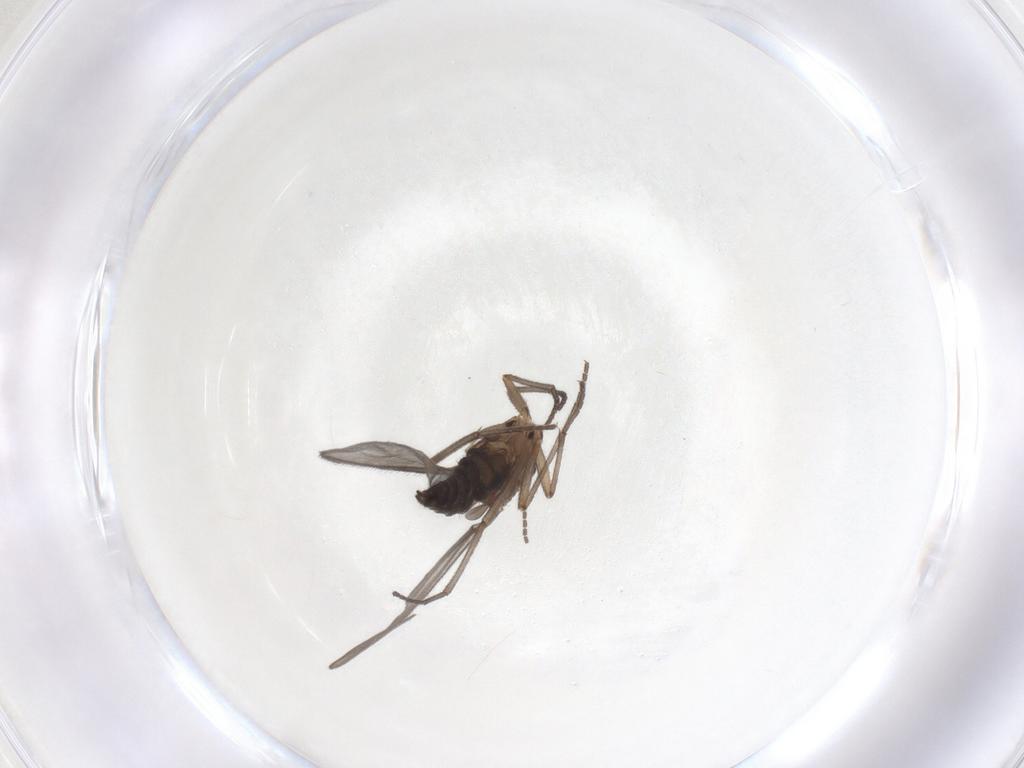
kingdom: Animalia
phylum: Arthropoda
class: Insecta
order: Diptera
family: Sciaridae
